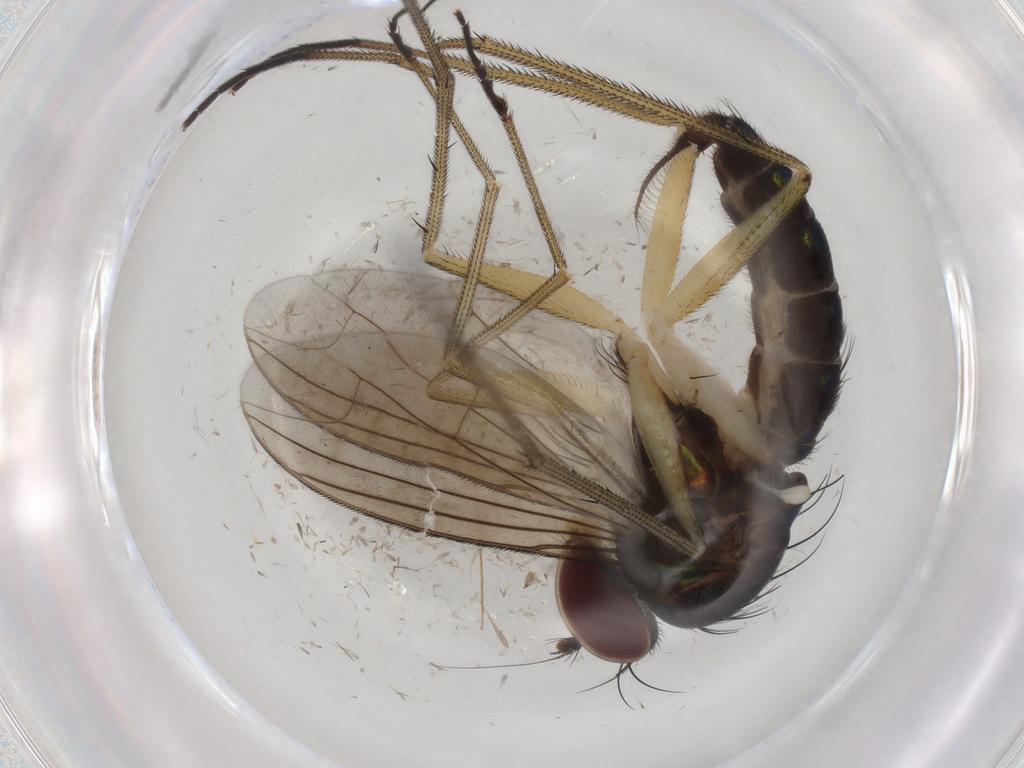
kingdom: Animalia
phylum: Arthropoda
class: Insecta
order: Diptera
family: Dolichopodidae
